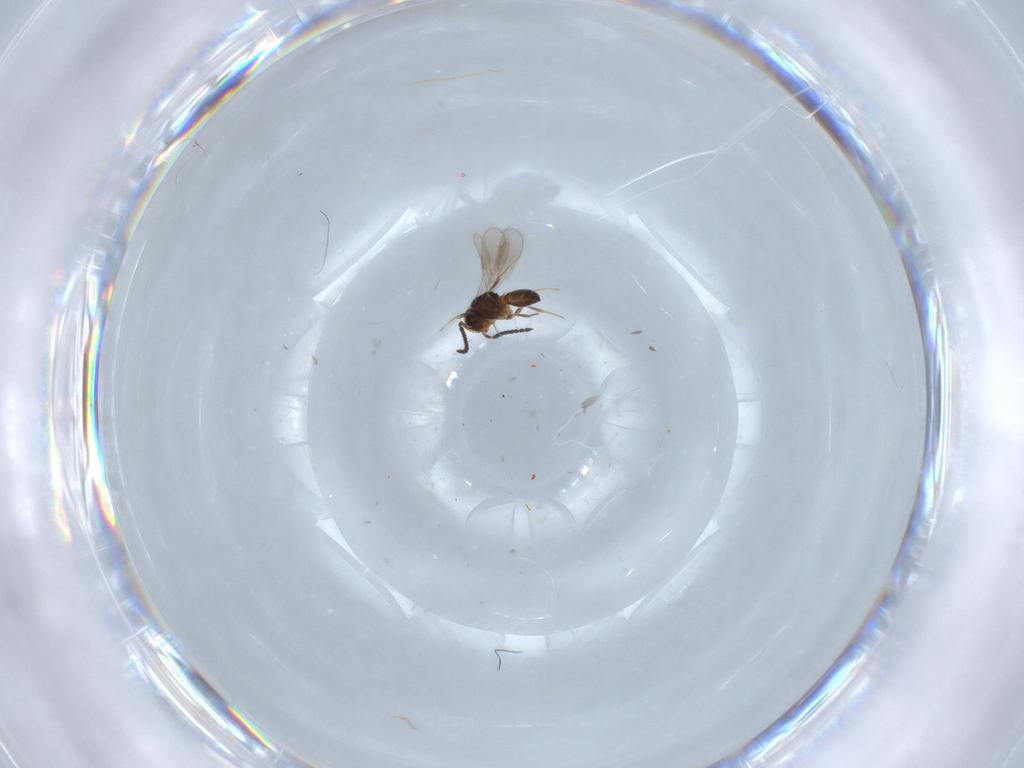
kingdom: Animalia
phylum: Arthropoda
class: Insecta
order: Hymenoptera
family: Scelionidae
